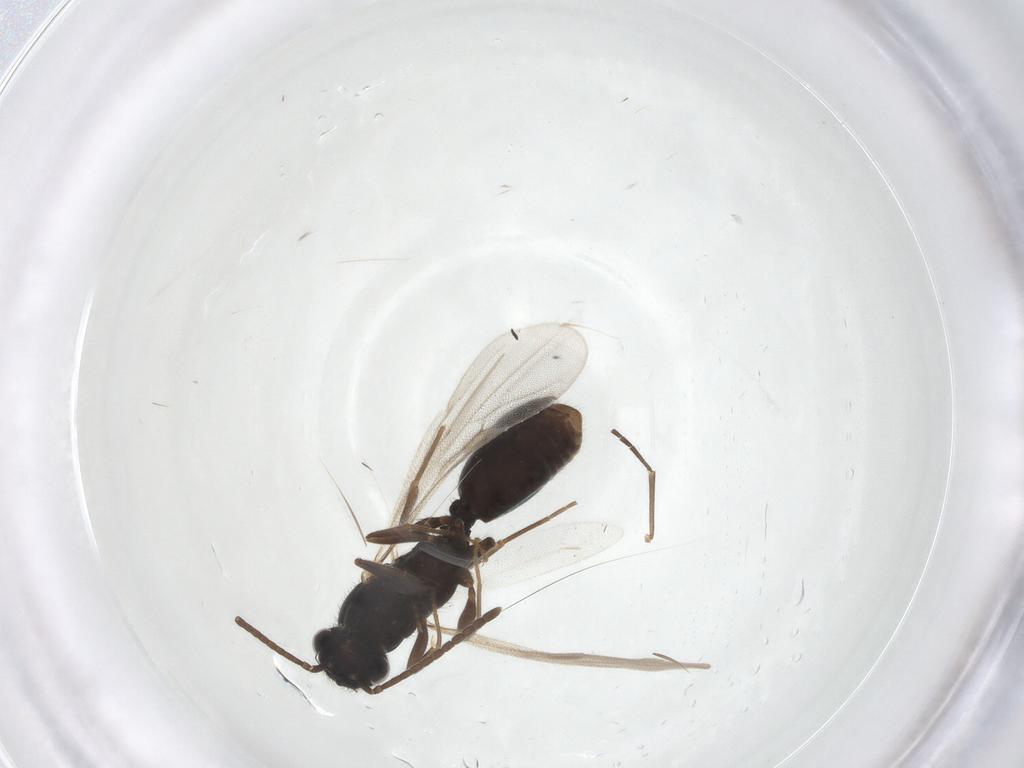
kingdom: Animalia
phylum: Arthropoda
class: Insecta
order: Hymenoptera
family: Formicidae
